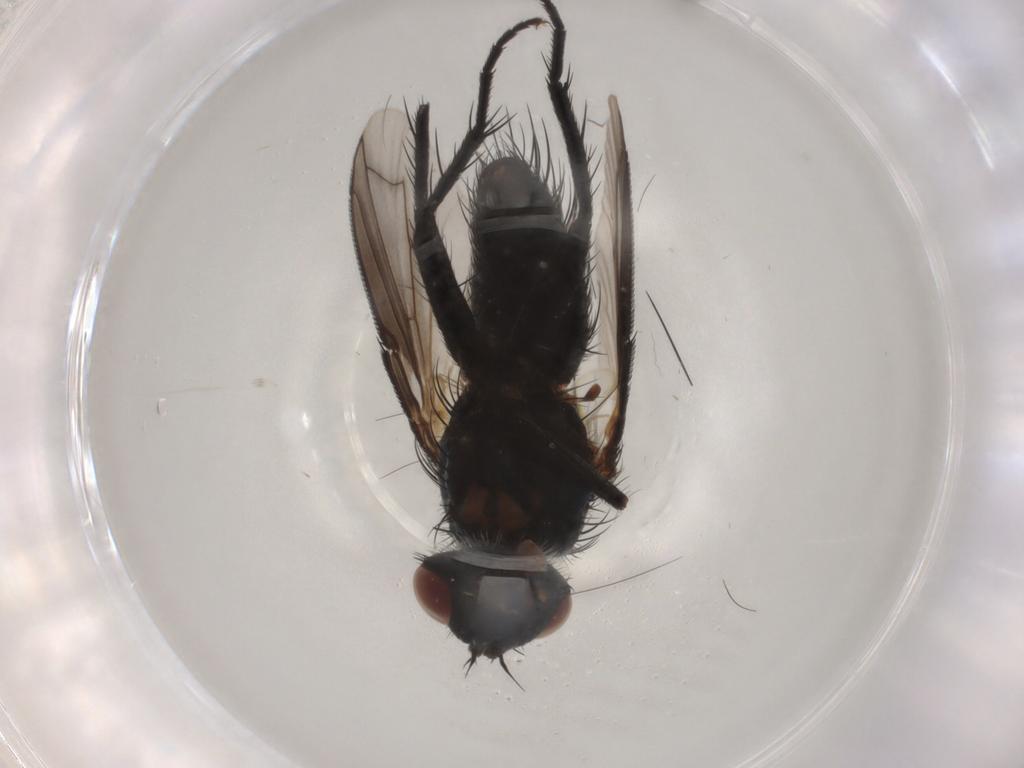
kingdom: Animalia
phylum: Arthropoda
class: Insecta
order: Diptera
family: Tachinidae
